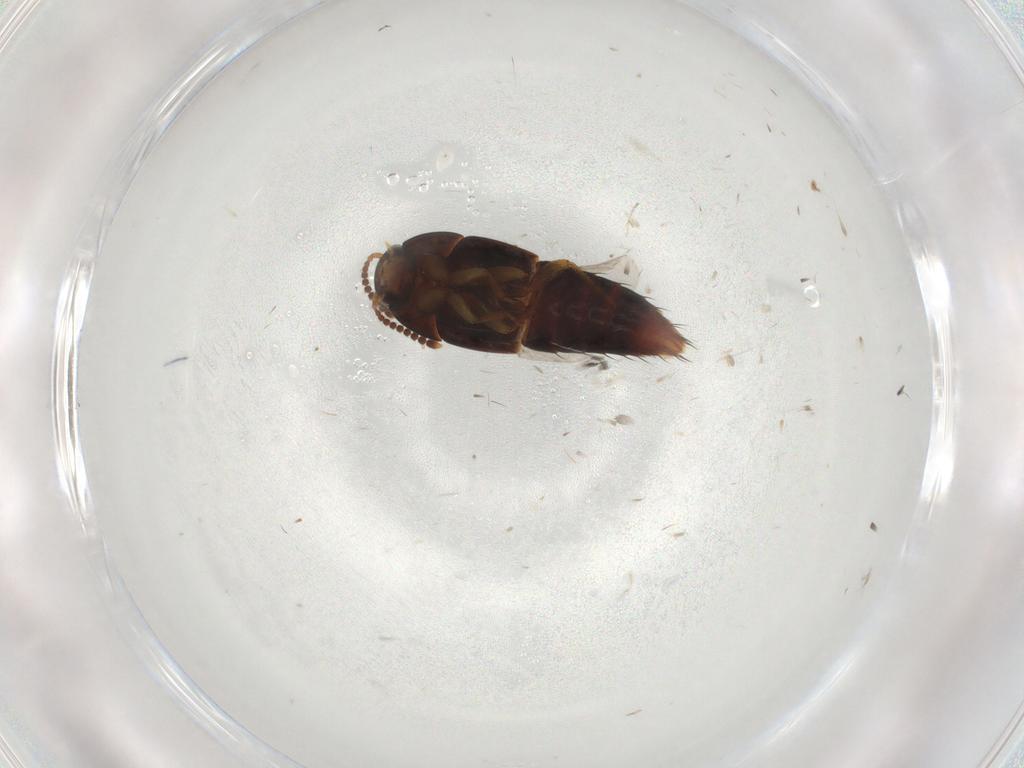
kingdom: Animalia
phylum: Arthropoda
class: Insecta
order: Coleoptera
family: Staphylinidae
